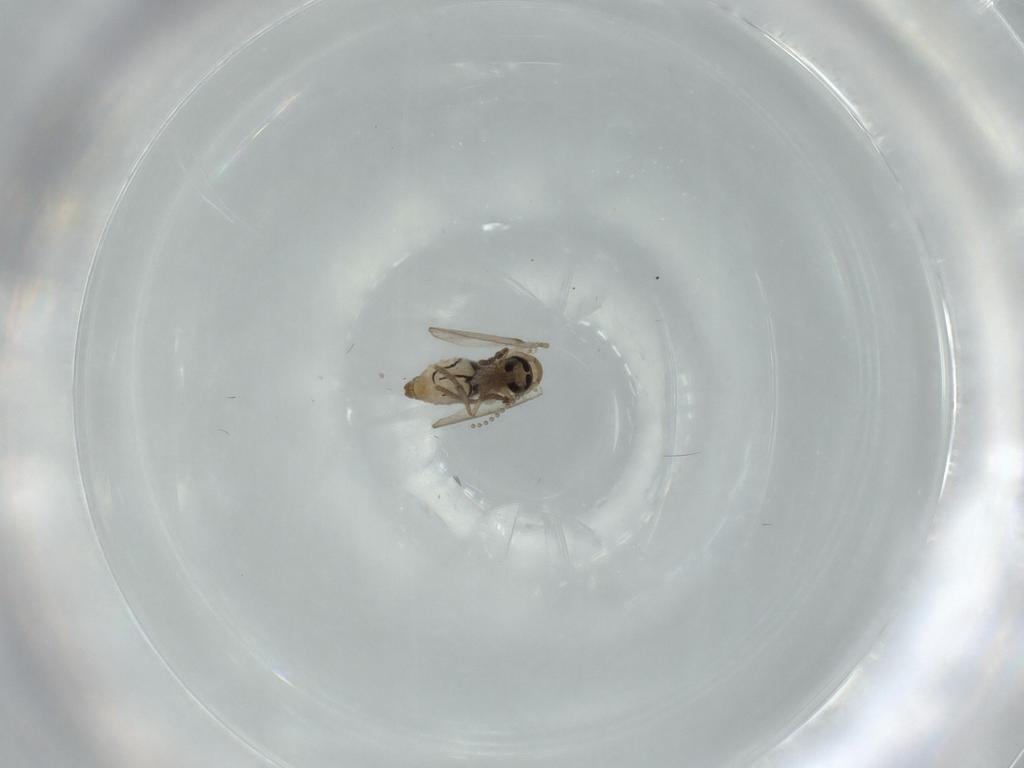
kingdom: Animalia
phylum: Arthropoda
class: Insecta
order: Diptera
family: Psychodidae
